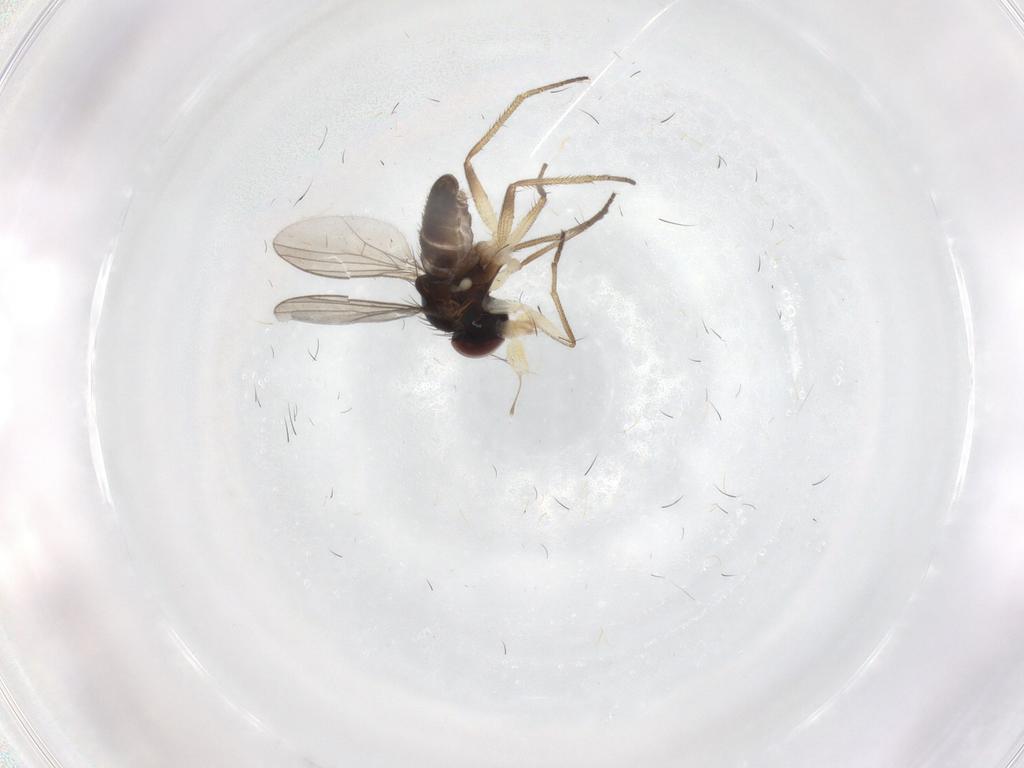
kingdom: Animalia
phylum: Arthropoda
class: Insecta
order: Diptera
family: Dolichopodidae
